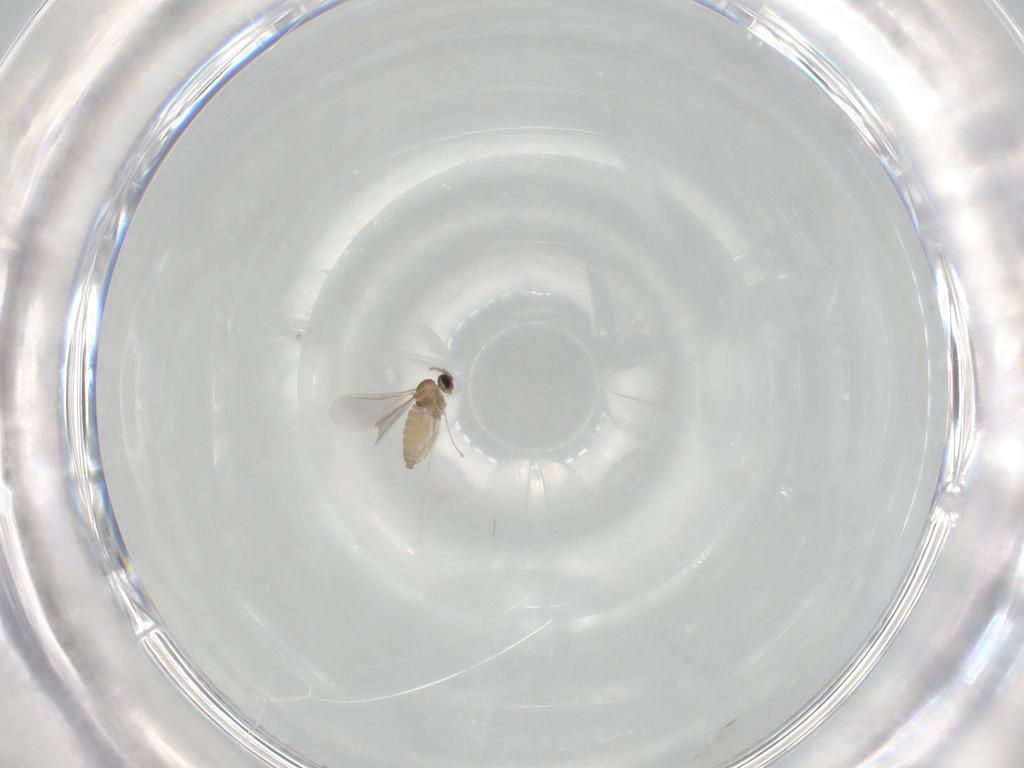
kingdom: Animalia
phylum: Arthropoda
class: Insecta
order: Diptera
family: Cecidomyiidae
